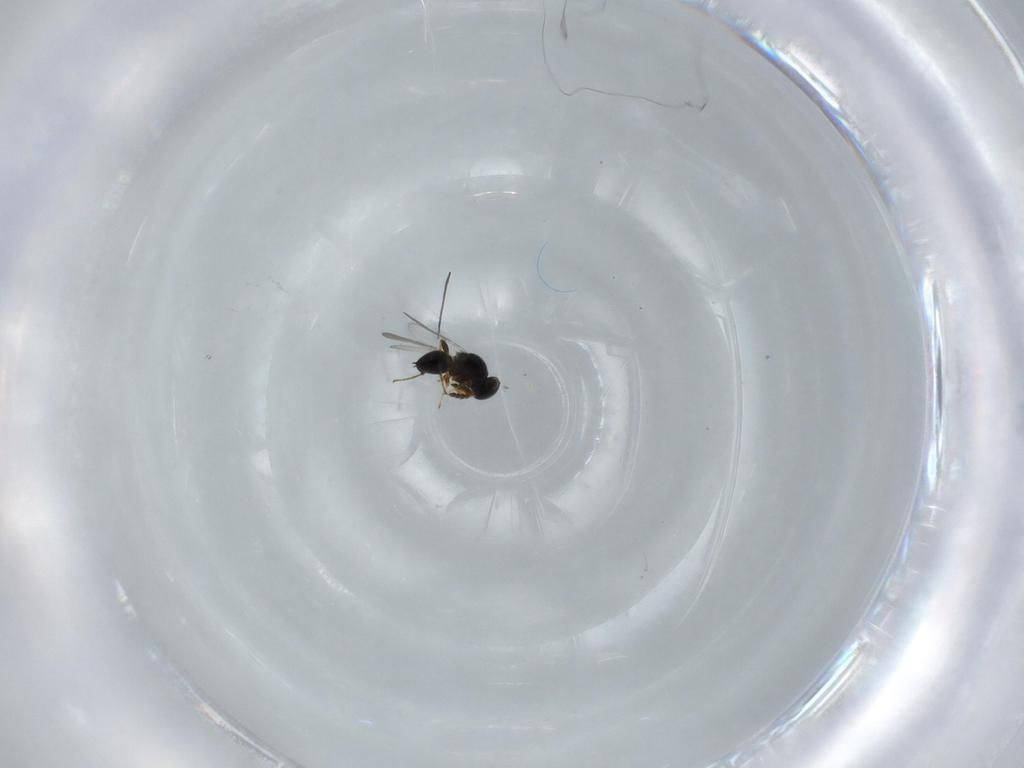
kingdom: Animalia
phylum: Arthropoda
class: Insecta
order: Hymenoptera
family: Platygastridae
